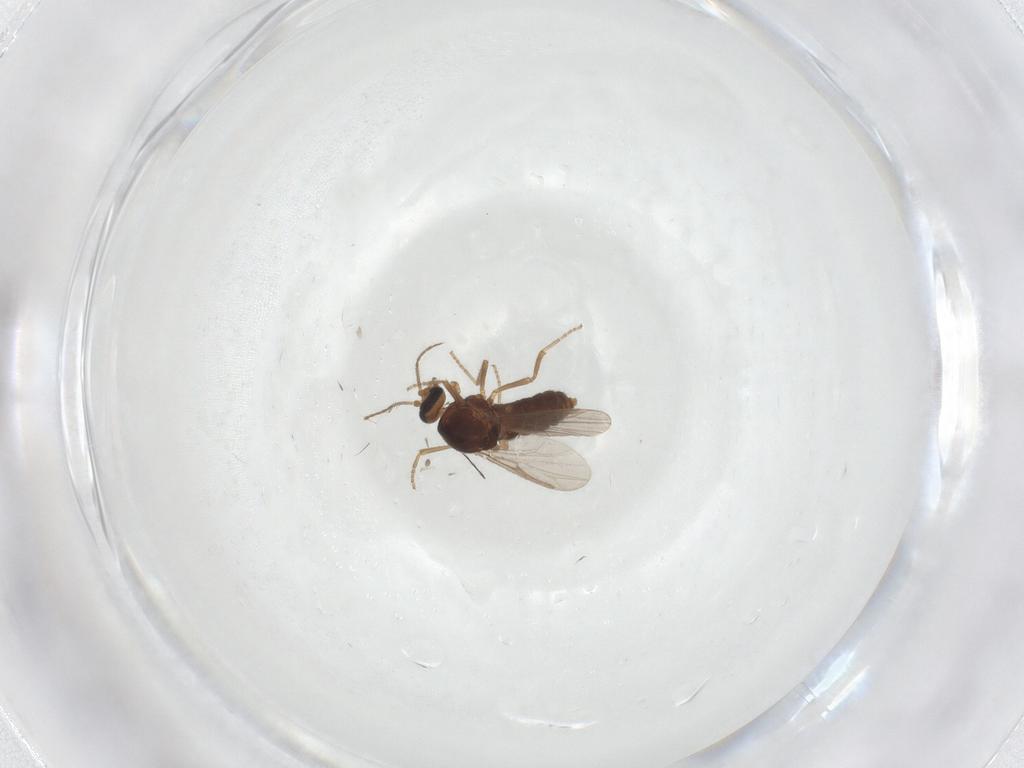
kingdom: Animalia
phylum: Arthropoda
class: Insecta
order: Diptera
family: Ceratopogonidae
